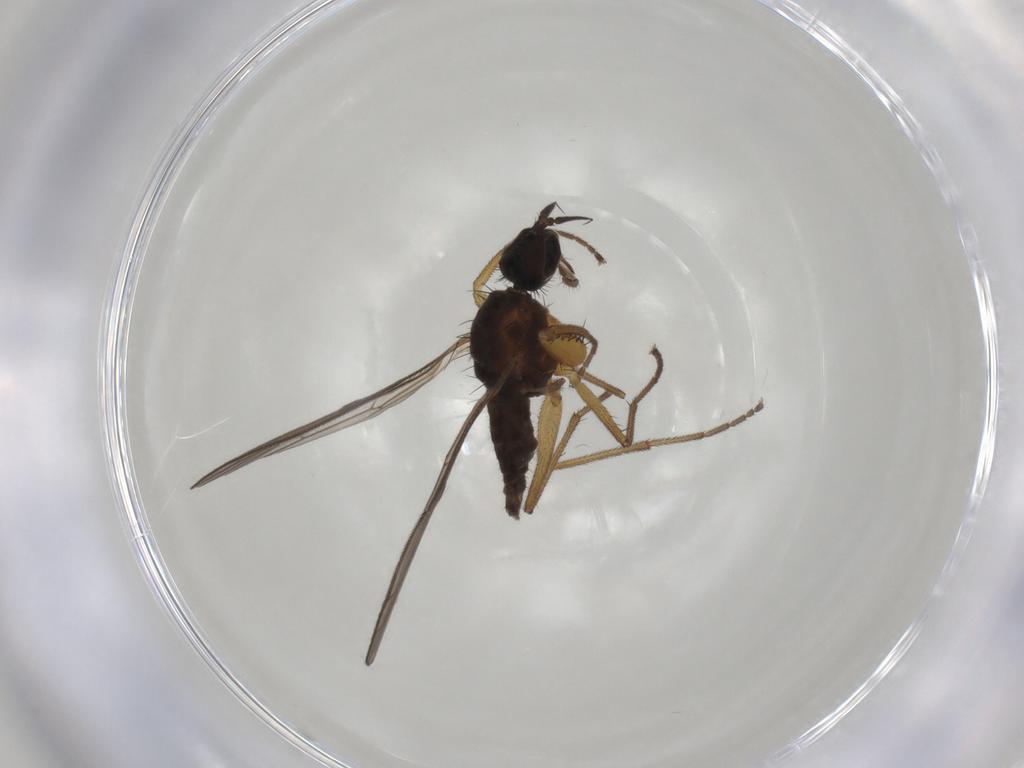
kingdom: Animalia
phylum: Arthropoda
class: Insecta
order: Diptera
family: Empididae
